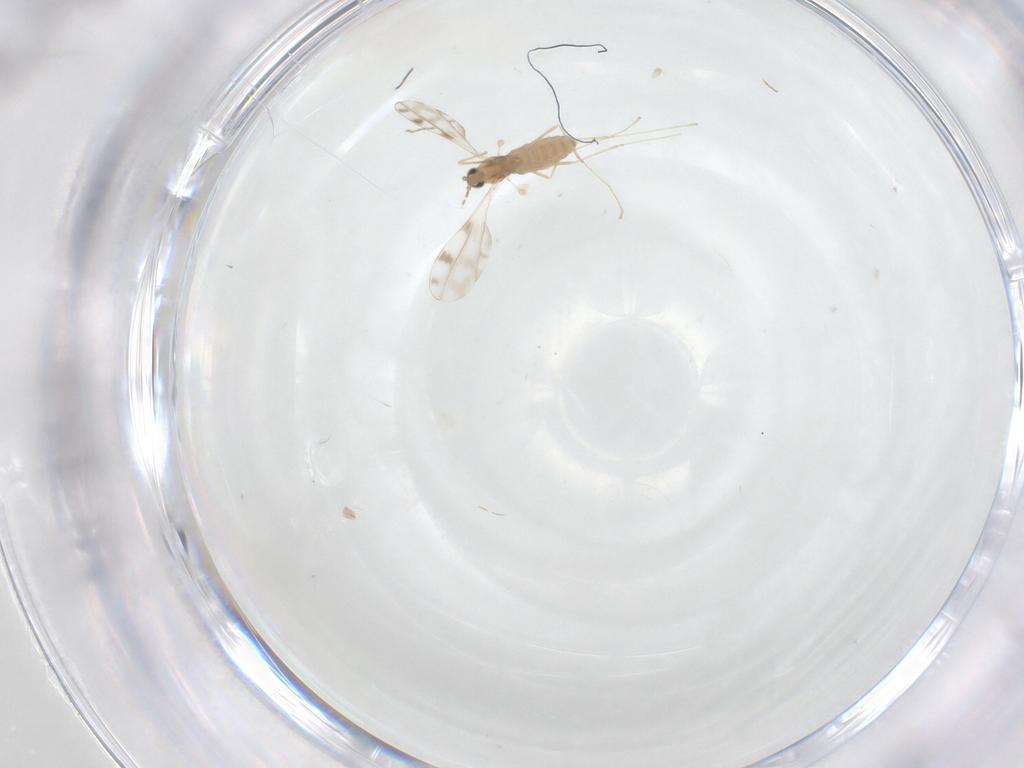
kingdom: Animalia
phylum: Arthropoda
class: Insecta
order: Diptera
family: Cecidomyiidae
